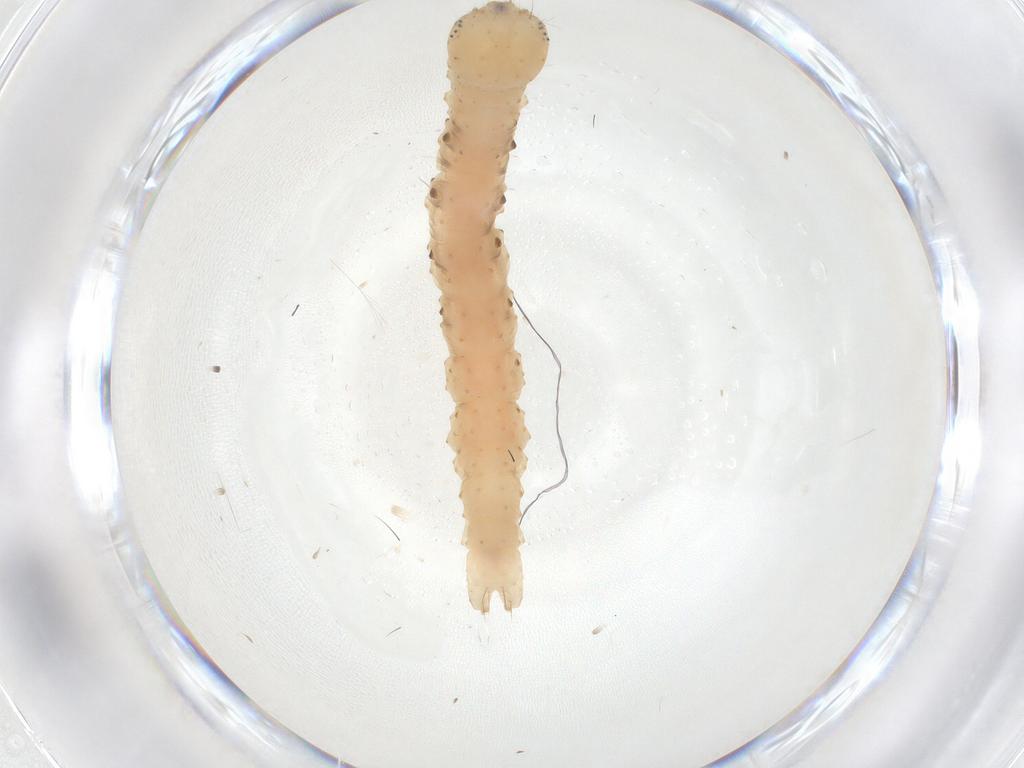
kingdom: Animalia
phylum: Arthropoda
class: Insecta
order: Lepidoptera
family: Erebidae
